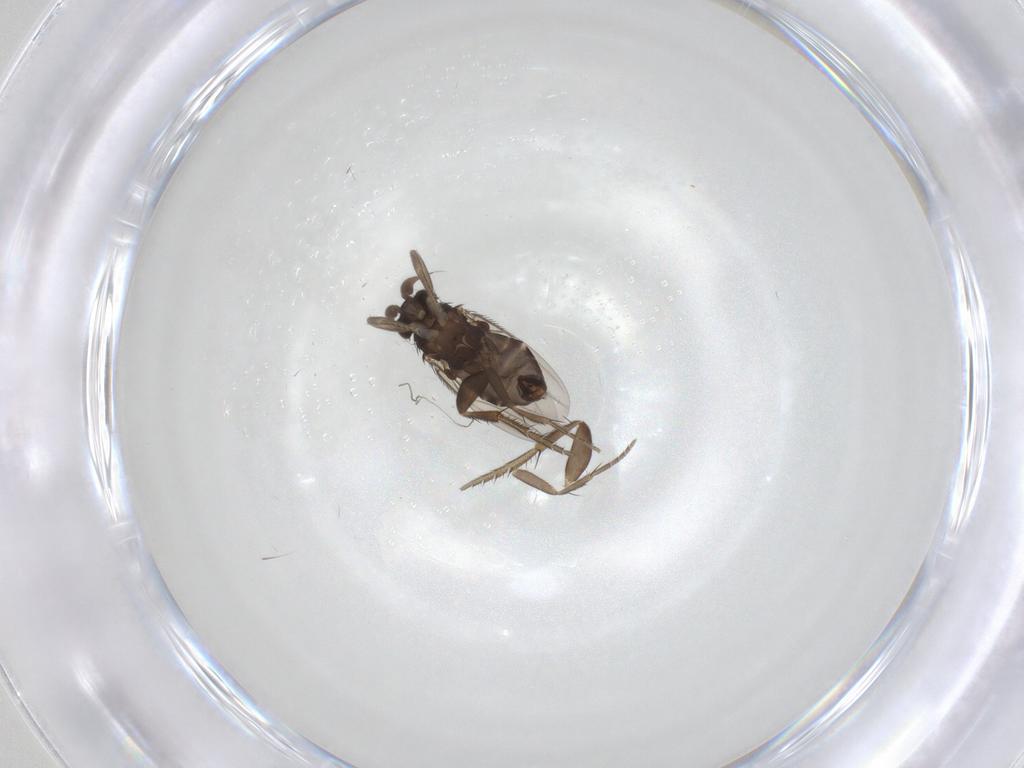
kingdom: Animalia
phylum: Arthropoda
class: Insecta
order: Diptera
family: Phoridae
